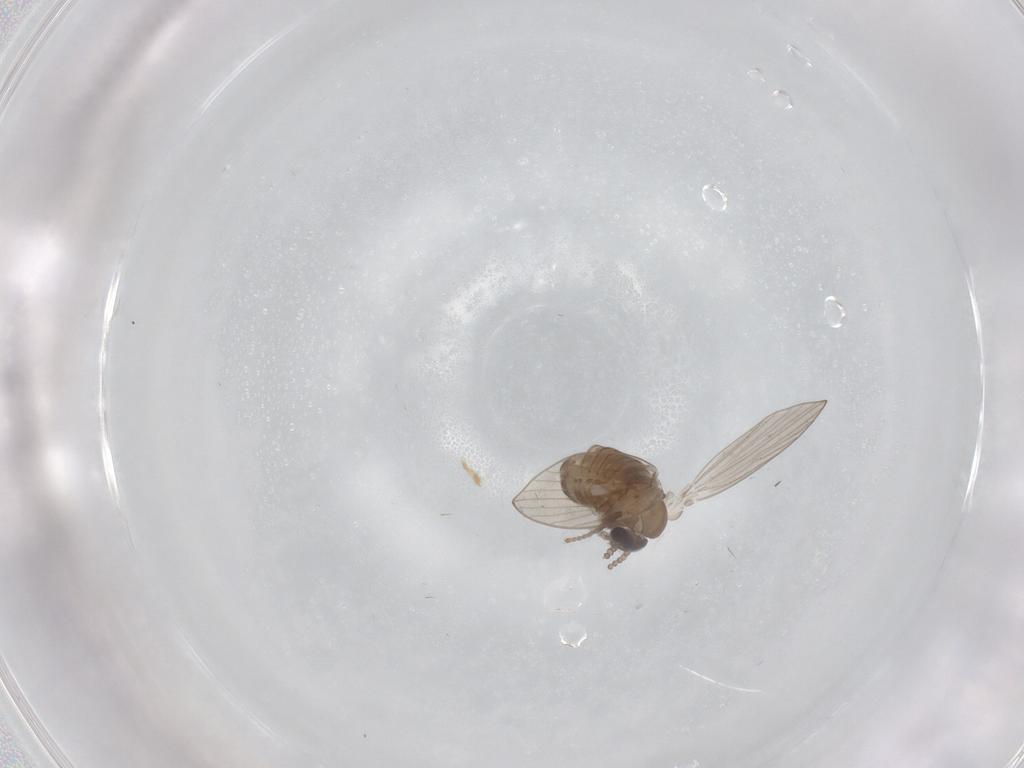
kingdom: Animalia
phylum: Arthropoda
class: Insecta
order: Diptera
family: Psychodidae
